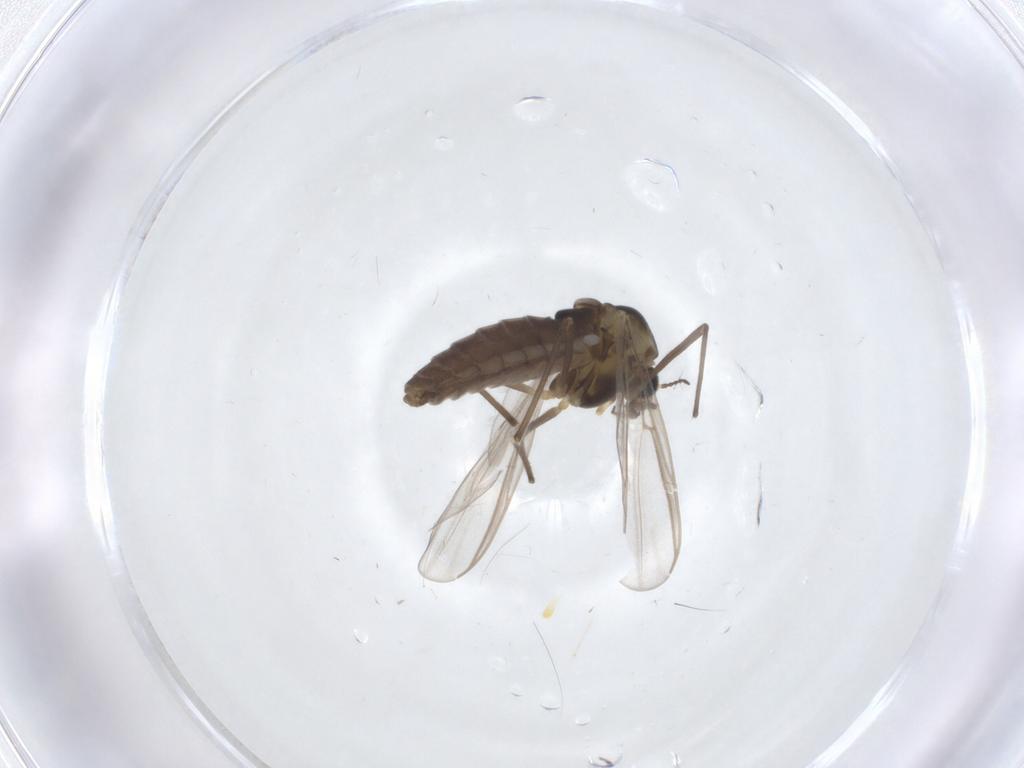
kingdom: Animalia
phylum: Arthropoda
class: Insecta
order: Diptera
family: Chironomidae
